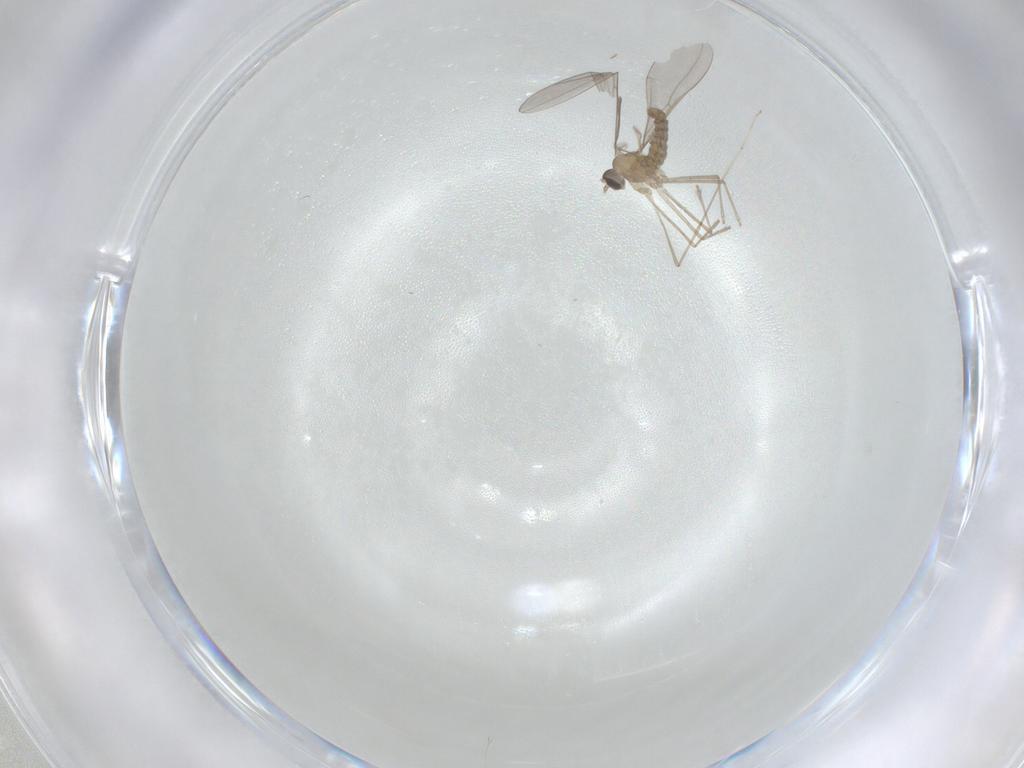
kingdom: Animalia
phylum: Arthropoda
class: Insecta
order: Diptera
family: Cecidomyiidae
